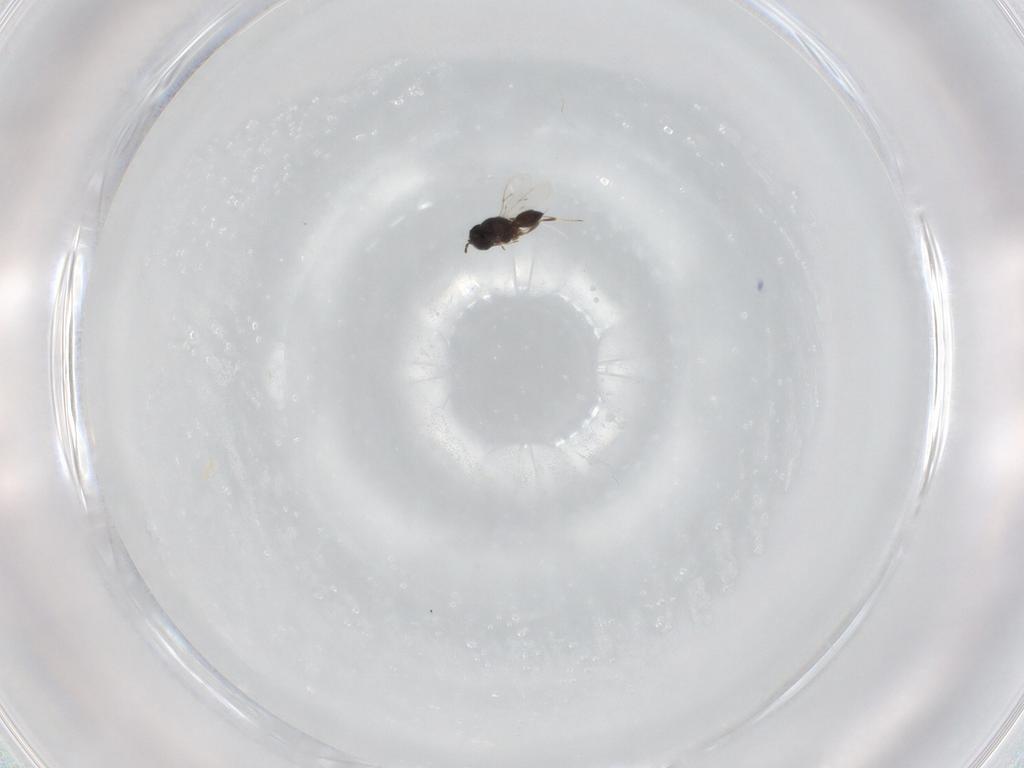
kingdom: Animalia
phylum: Arthropoda
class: Insecta
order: Hymenoptera
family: Scelionidae
